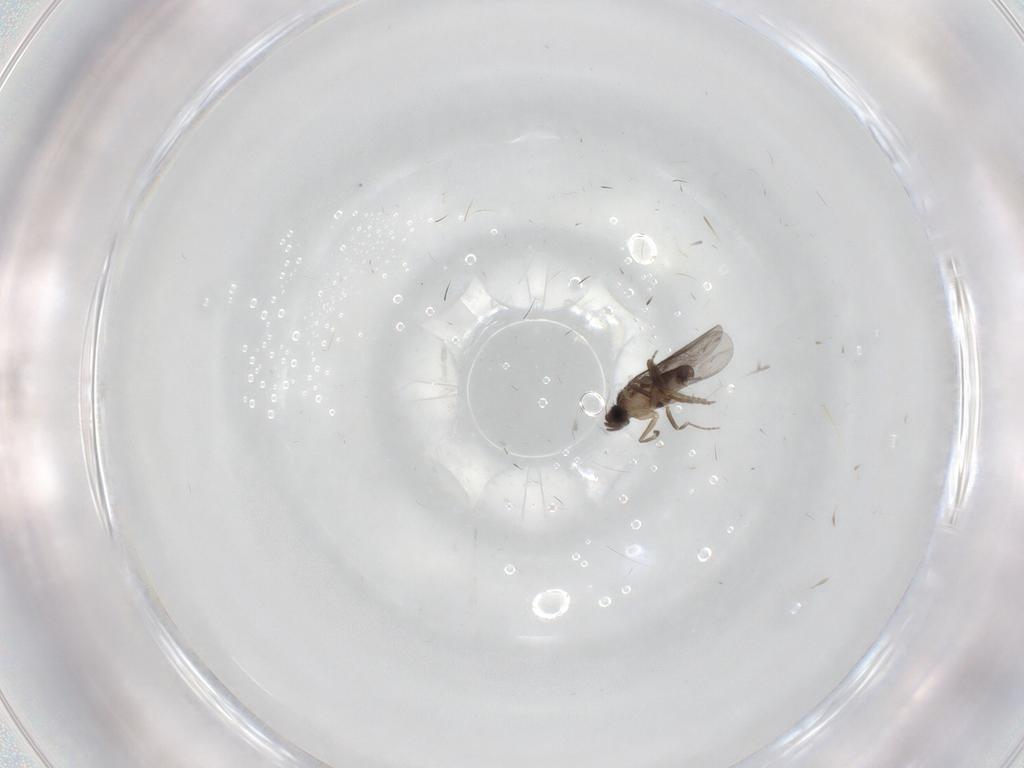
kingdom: Animalia
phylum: Arthropoda
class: Insecta
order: Diptera
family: Cecidomyiidae
